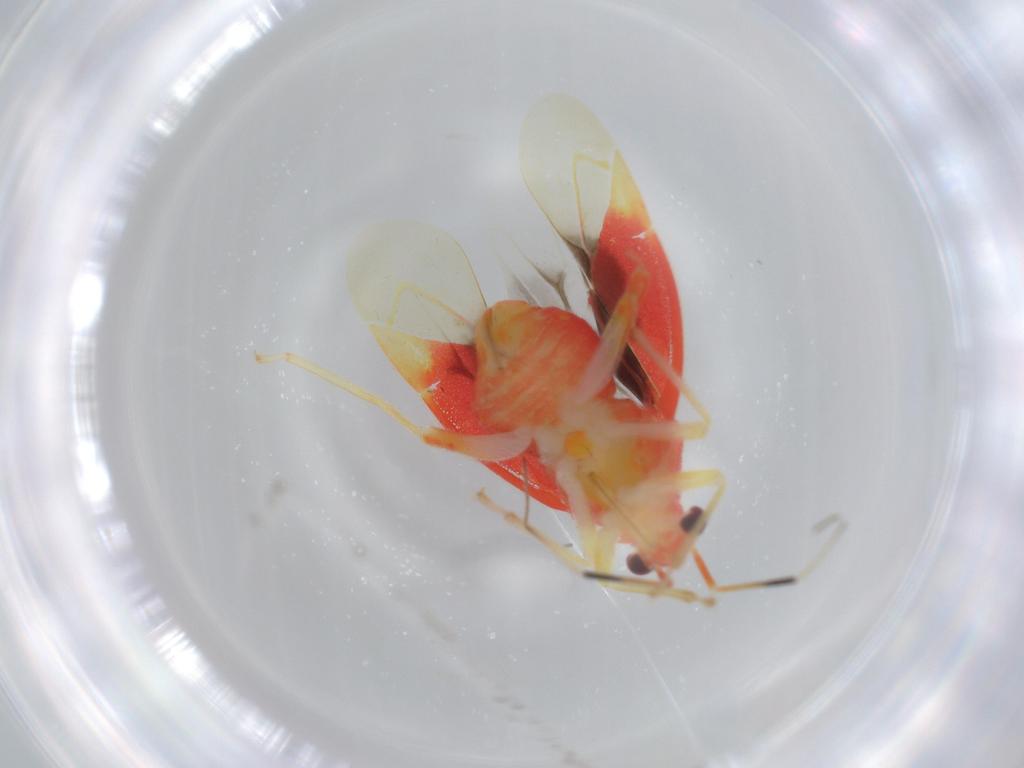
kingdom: Animalia
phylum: Arthropoda
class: Insecta
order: Hemiptera
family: Miridae
